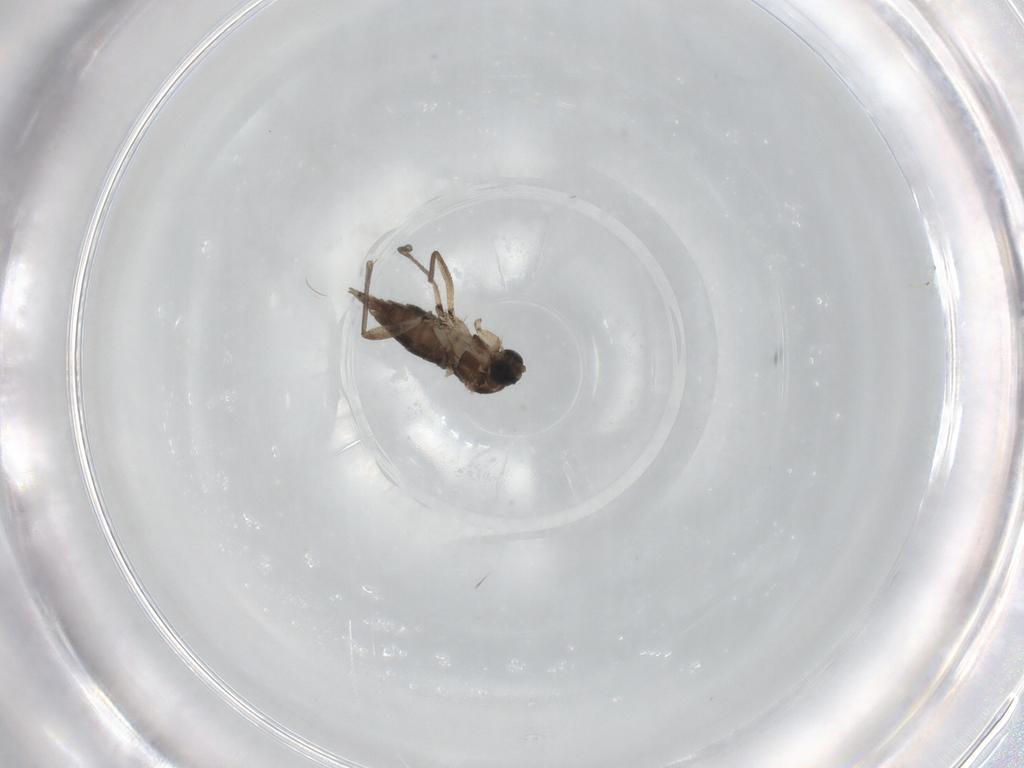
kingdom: Animalia
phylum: Arthropoda
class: Insecta
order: Diptera
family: Sciaridae
